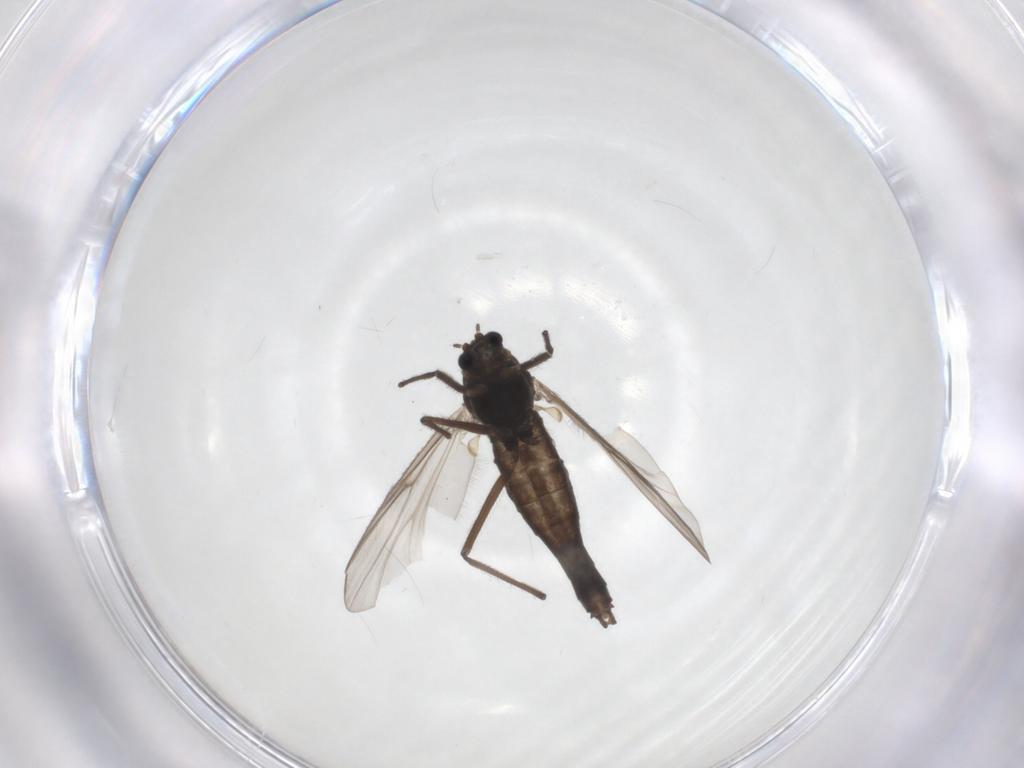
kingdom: Animalia
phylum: Arthropoda
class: Insecta
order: Diptera
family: Chironomidae
